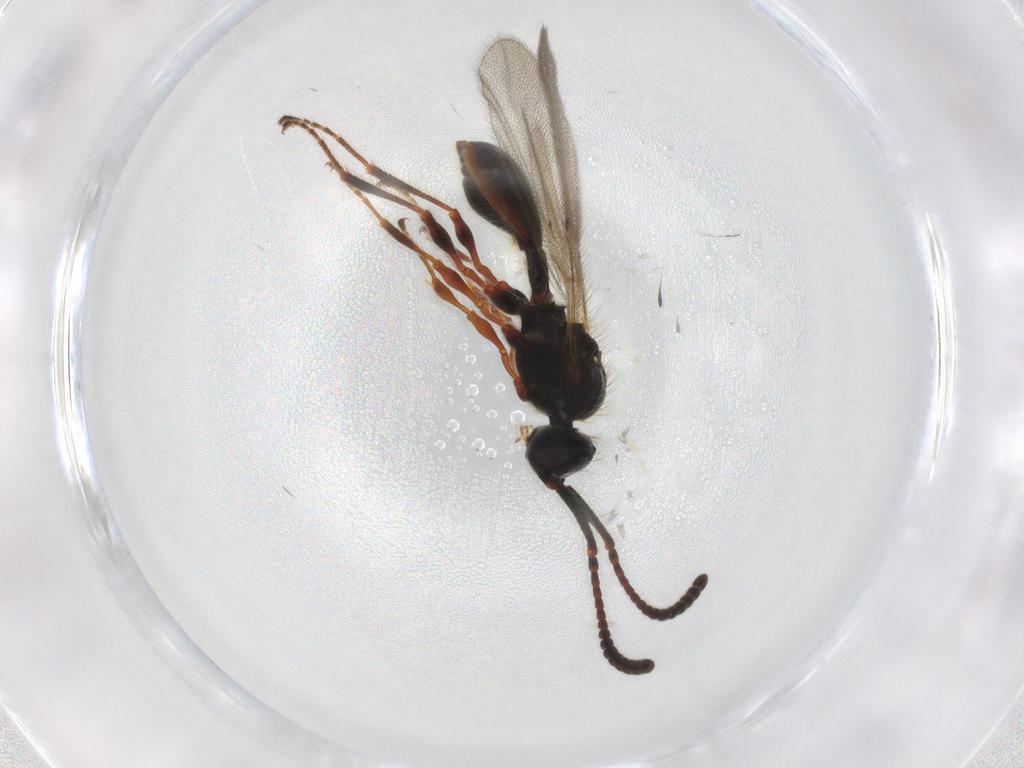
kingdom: Animalia
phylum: Arthropoda
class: Insecta
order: Hymenoptera
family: Diapriidae
